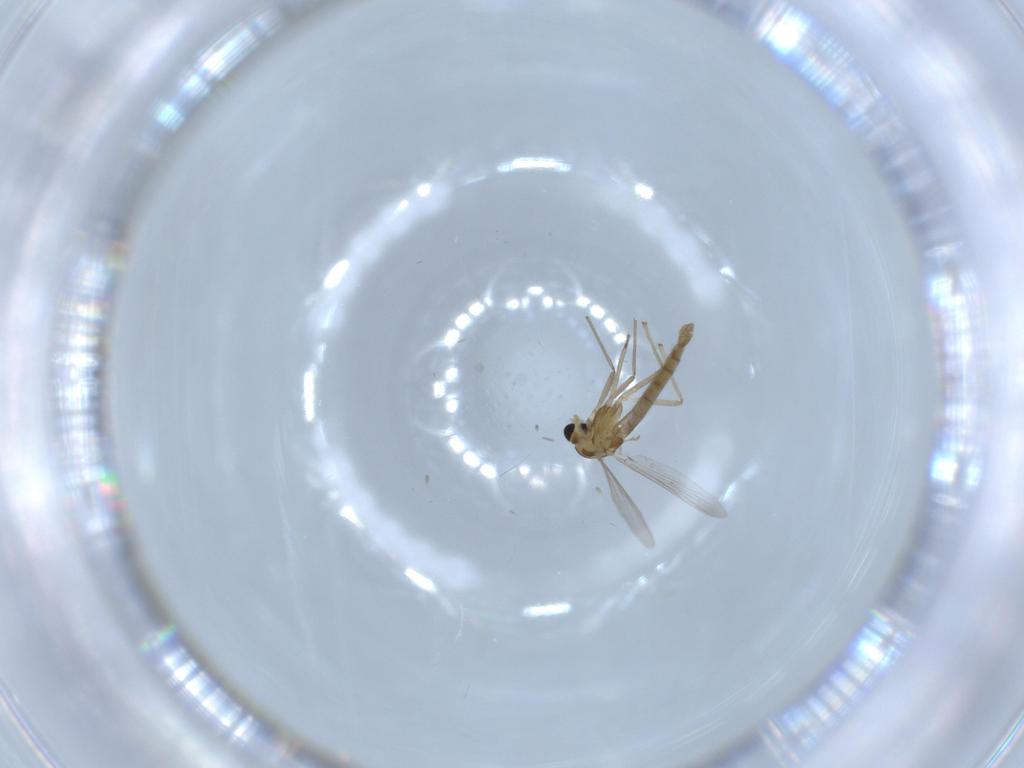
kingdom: Animalia
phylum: Arthropoda
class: Insecta
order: Diptera
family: Chironomidae
